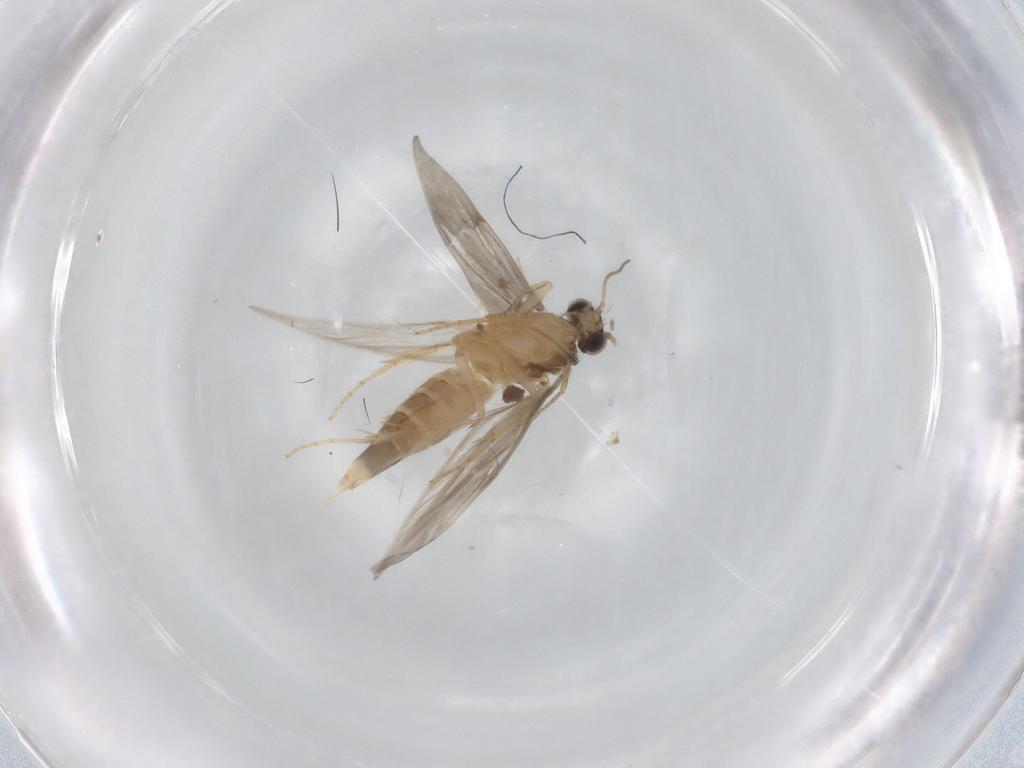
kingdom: Animalia
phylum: Arthropoda
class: Insecta
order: Trichoptera
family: Hydroptilidae
